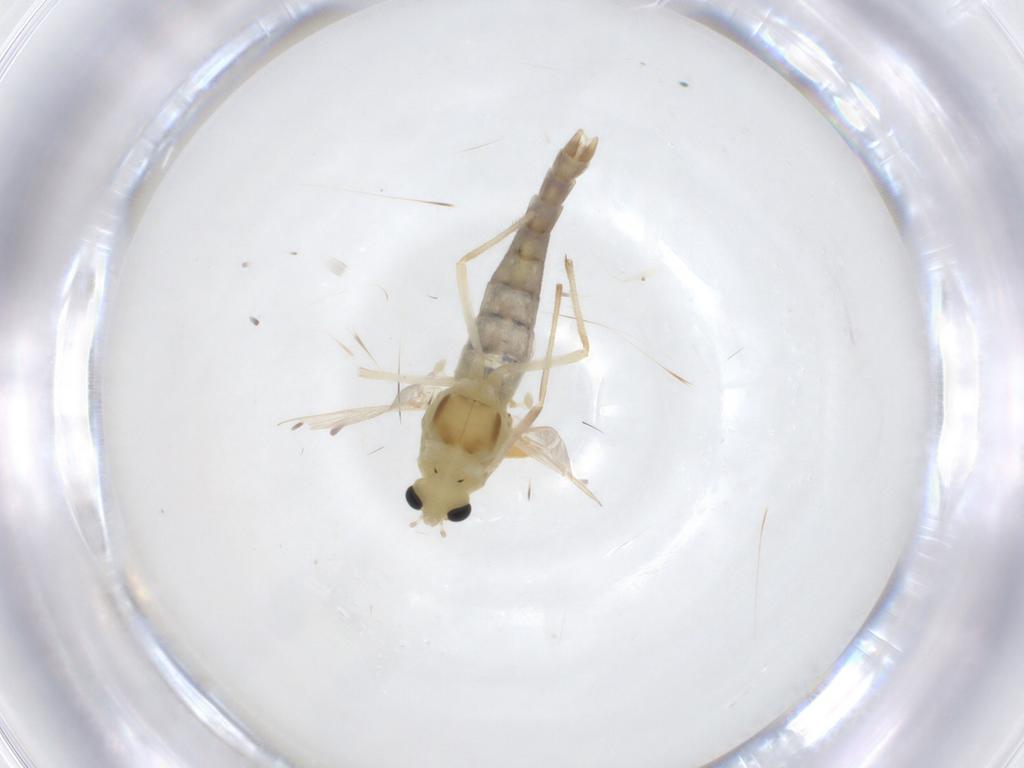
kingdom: Animalia
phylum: Arthropoda
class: Insecta
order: Diptera
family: Chironomidae
